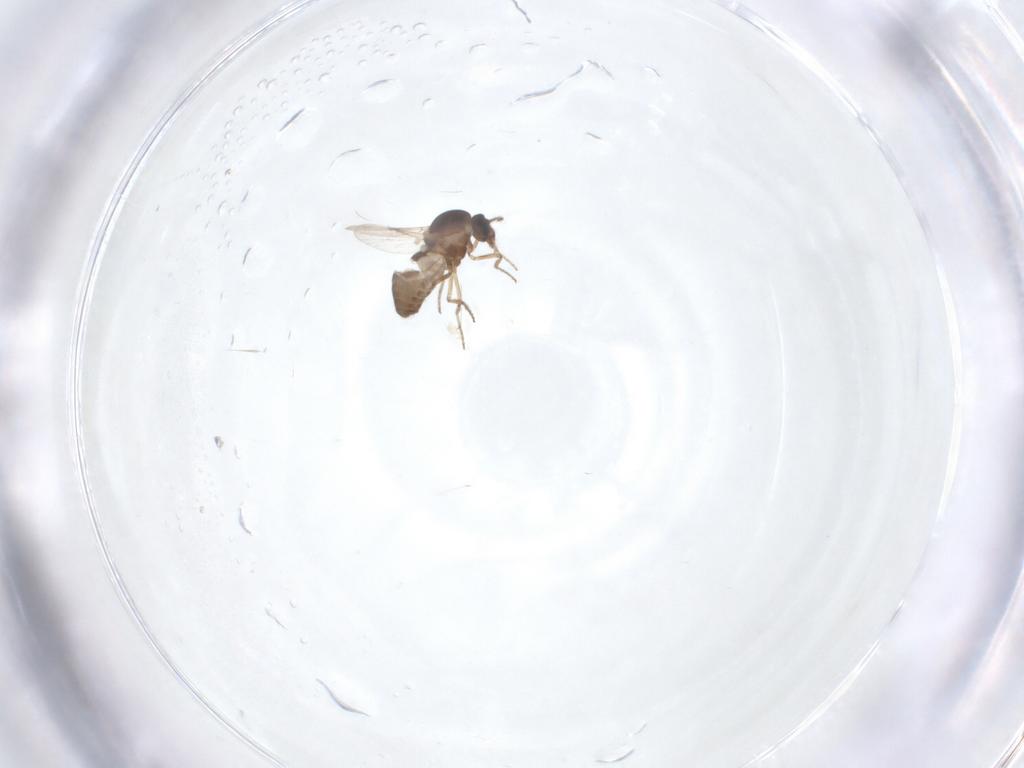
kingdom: Animalia
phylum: Arthropoda
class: Insecta
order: Diptera
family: Ceratopogonidae
